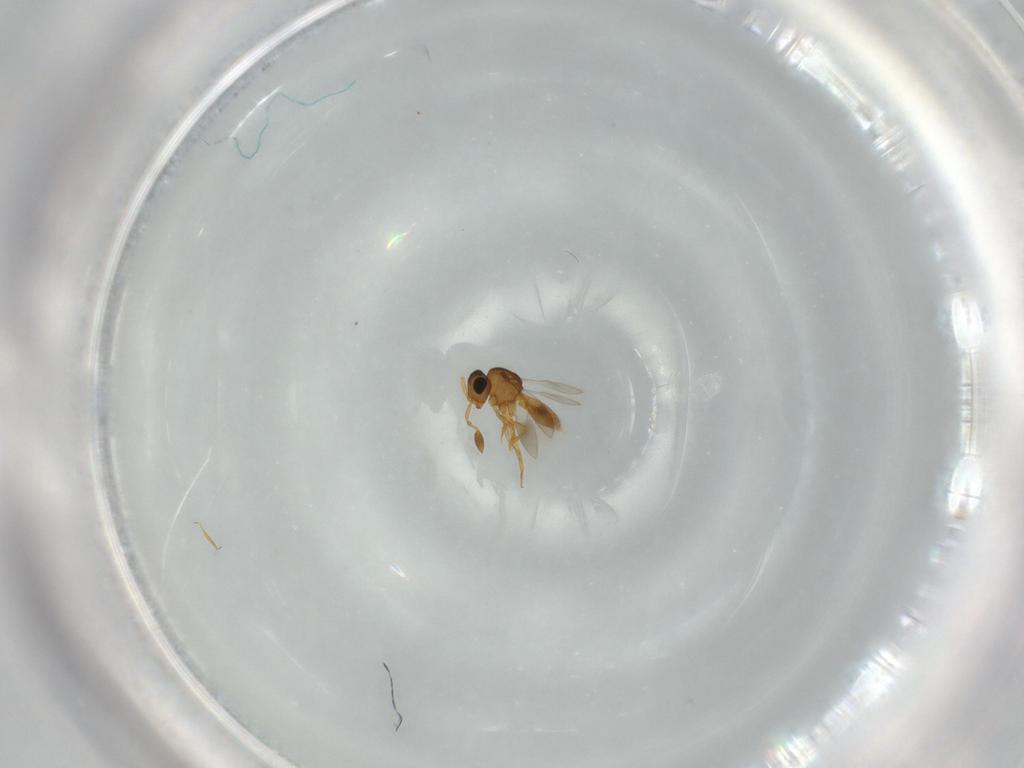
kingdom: Animalia
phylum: Arthropoda
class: Insecta
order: Hymenoptera
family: Scelionidae
